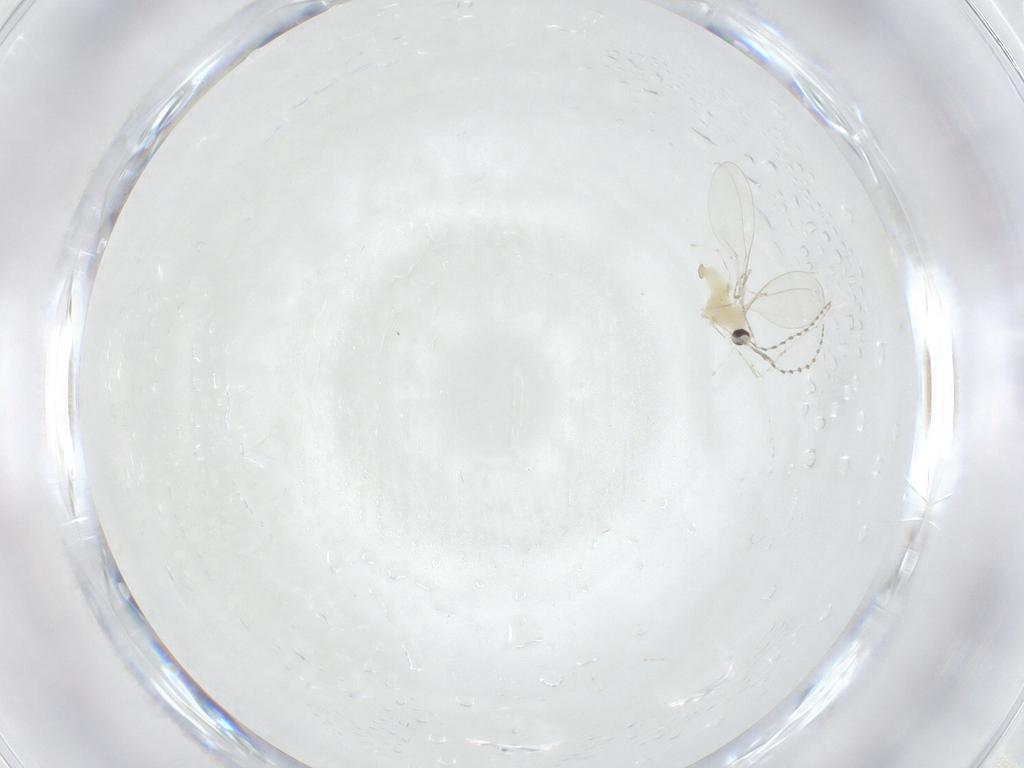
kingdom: Animalia
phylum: Arthropoda
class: Insecta
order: Diptera
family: Cecidomyiidae
